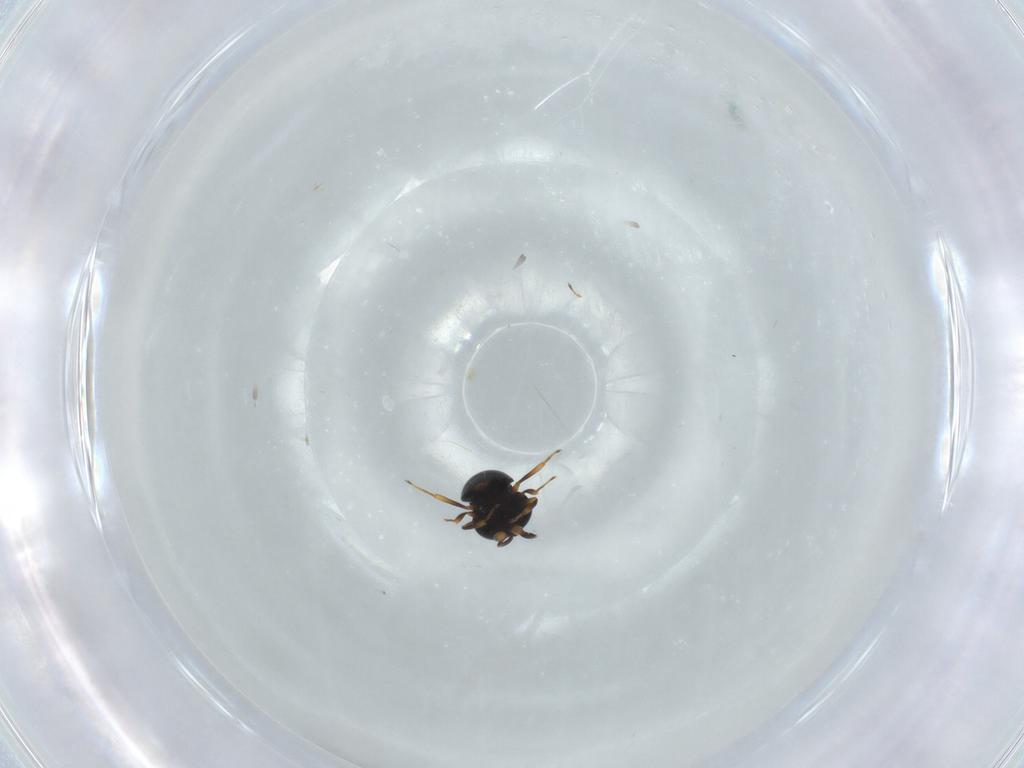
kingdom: Animalia
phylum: Arthropoda
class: Insecta
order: Hymenoptera
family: Scelionidae
